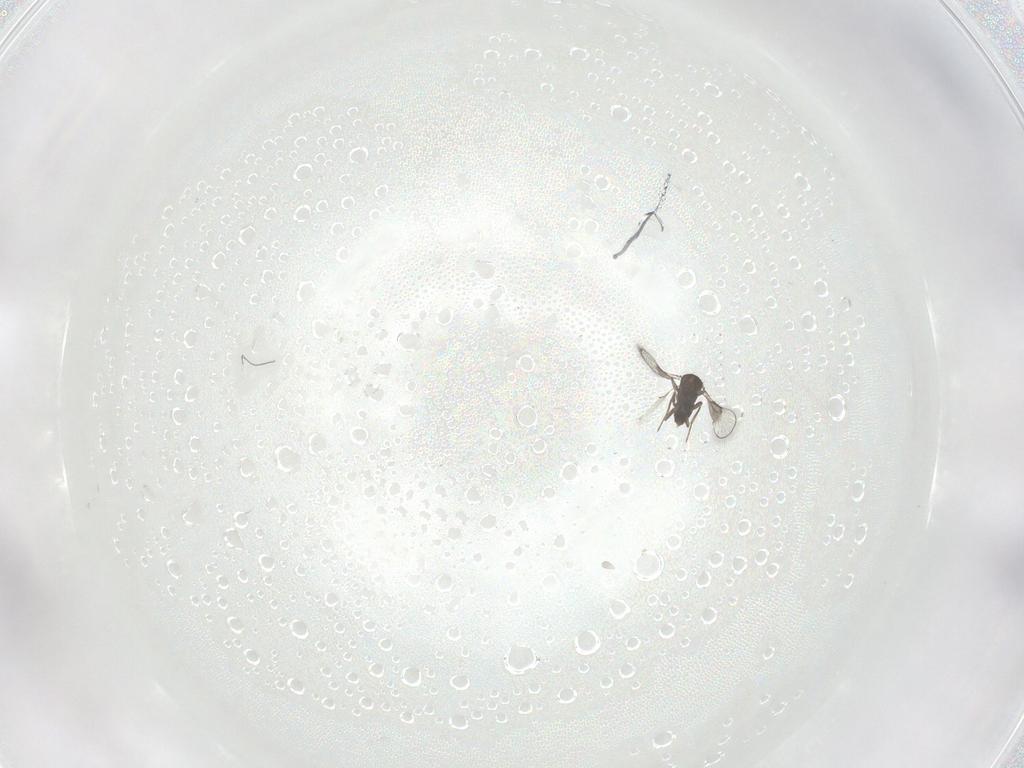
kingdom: Animalia
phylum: Arthropoda
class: Insecta
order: Hymenoptera
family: Trichogrammatidae
